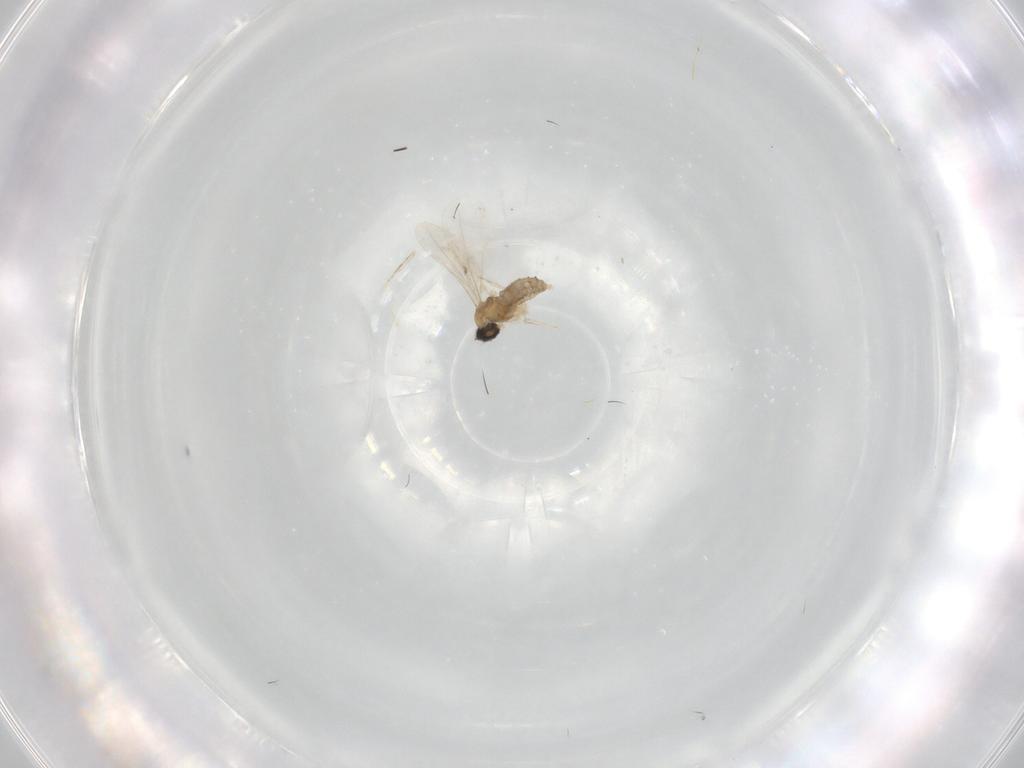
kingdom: Animalia
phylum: Arthropoda
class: Insecta
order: Diptera
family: Cecidomyiidae
